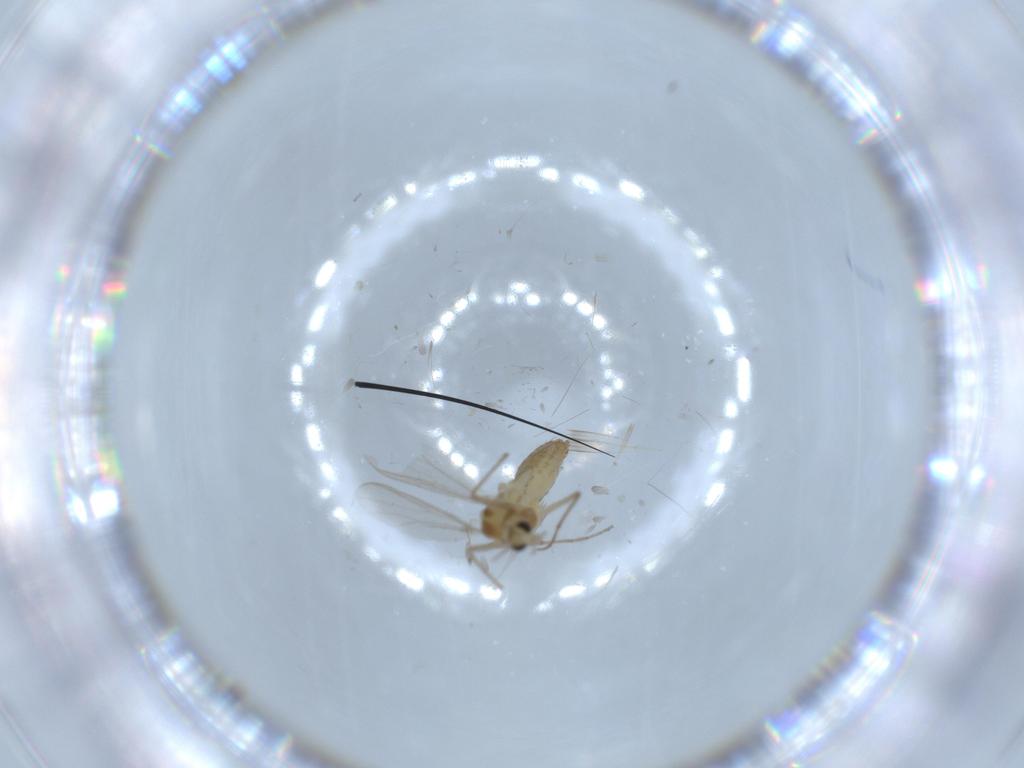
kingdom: Animalia
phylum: Arthropoda
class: Insecta
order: Diptera
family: Chironomidae
